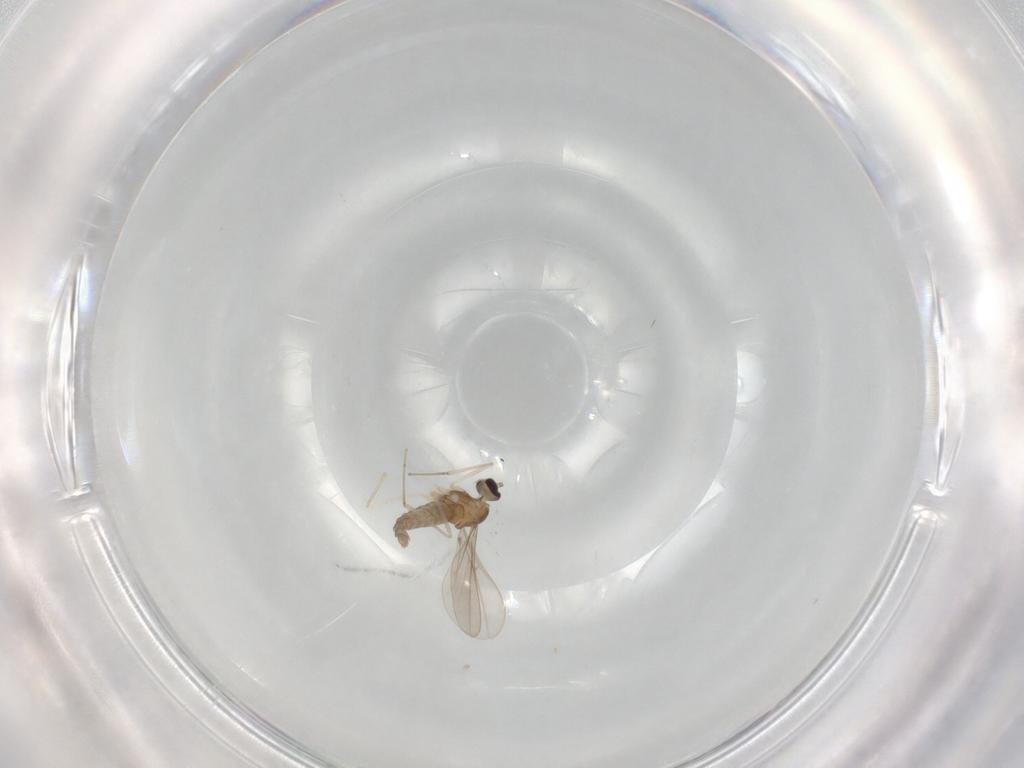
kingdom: Animalia
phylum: Arthropoda
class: Insecta
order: Diptera
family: Cecidomyiidae
